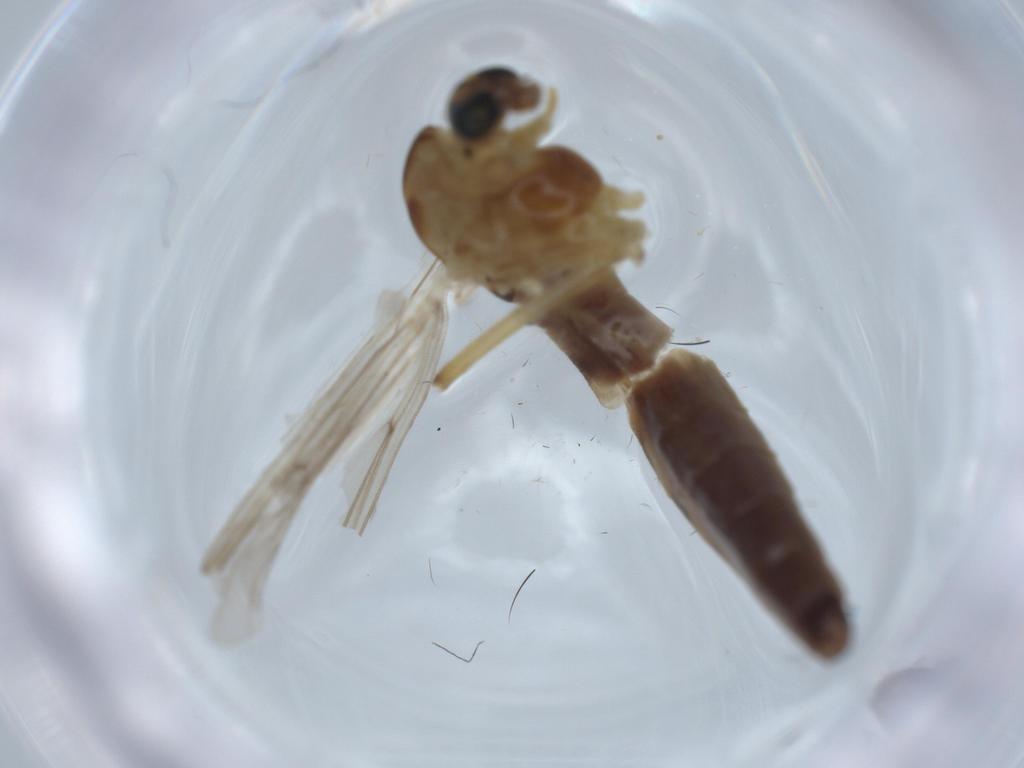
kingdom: Animalia
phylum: Arthropoda
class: Insecta
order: Diptera
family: Chironomidae
